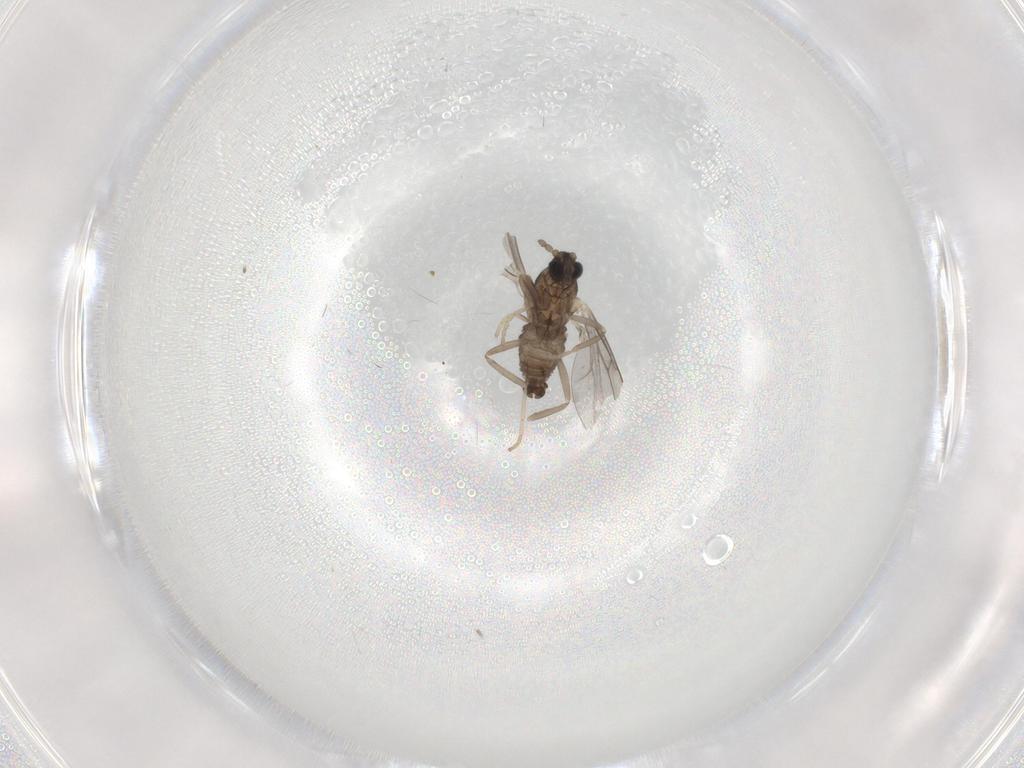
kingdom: Animalia
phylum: Arthropoda
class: Insecta
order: Diptera
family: Cecidomyiidae
